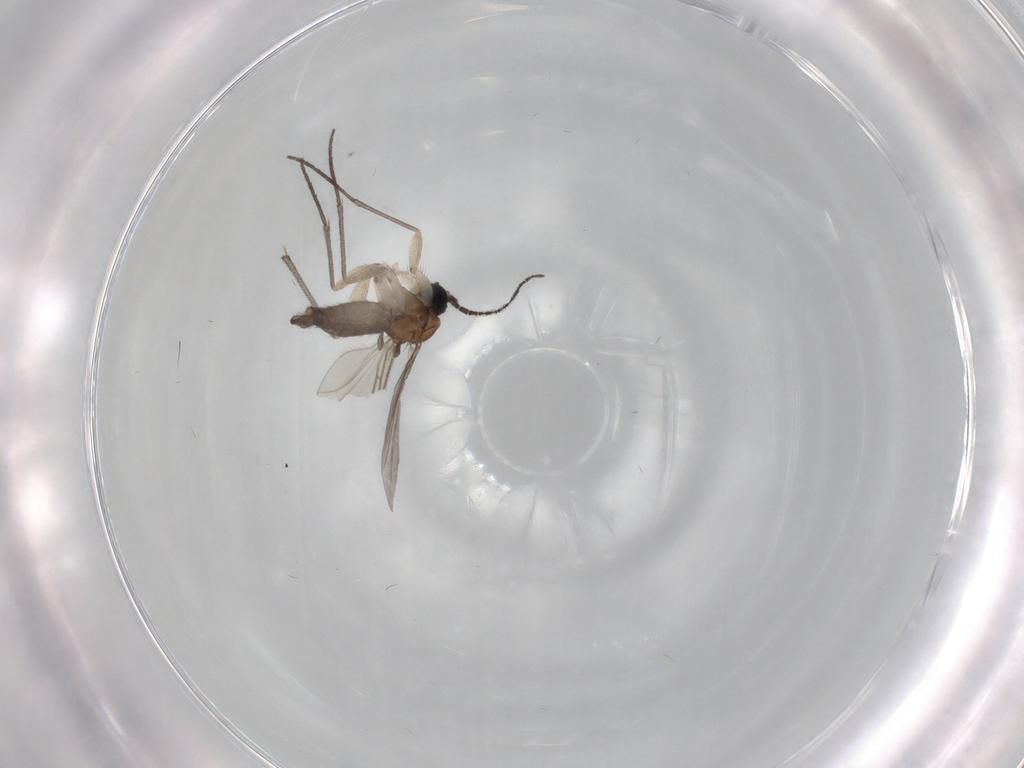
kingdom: Animalia
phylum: Arthropoda
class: Insecta
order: Diptera
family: Sciaridae
